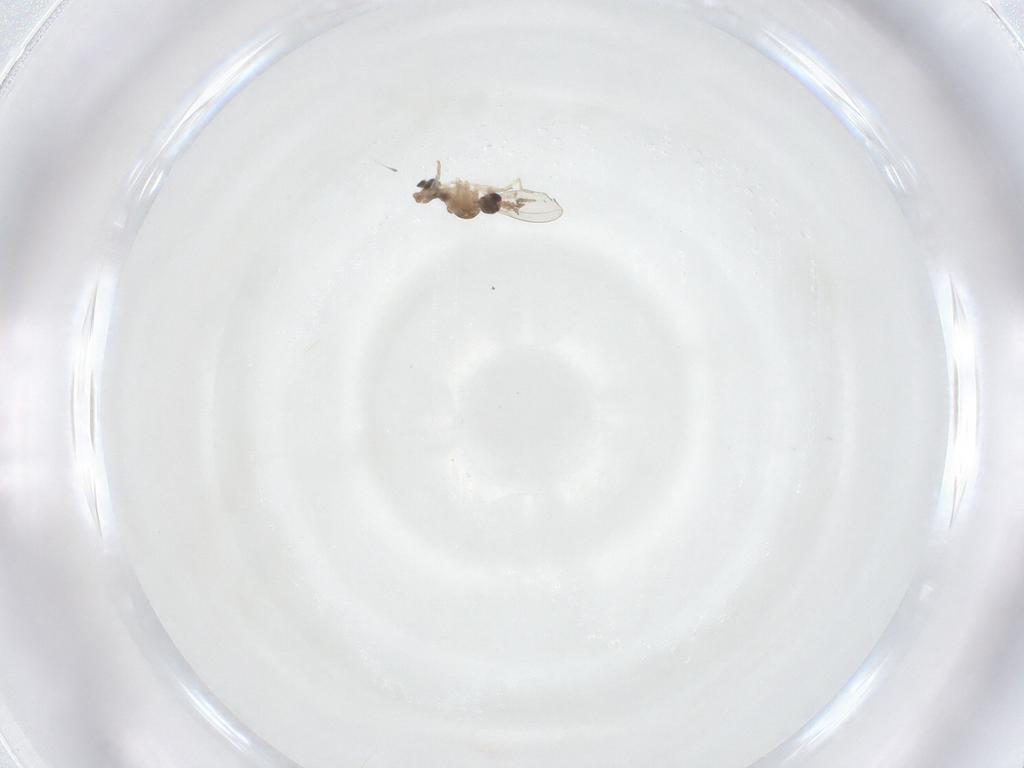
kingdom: Animalia
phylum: Arthropoda
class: Insecta
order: Diptera
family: Cecidomyiidae
